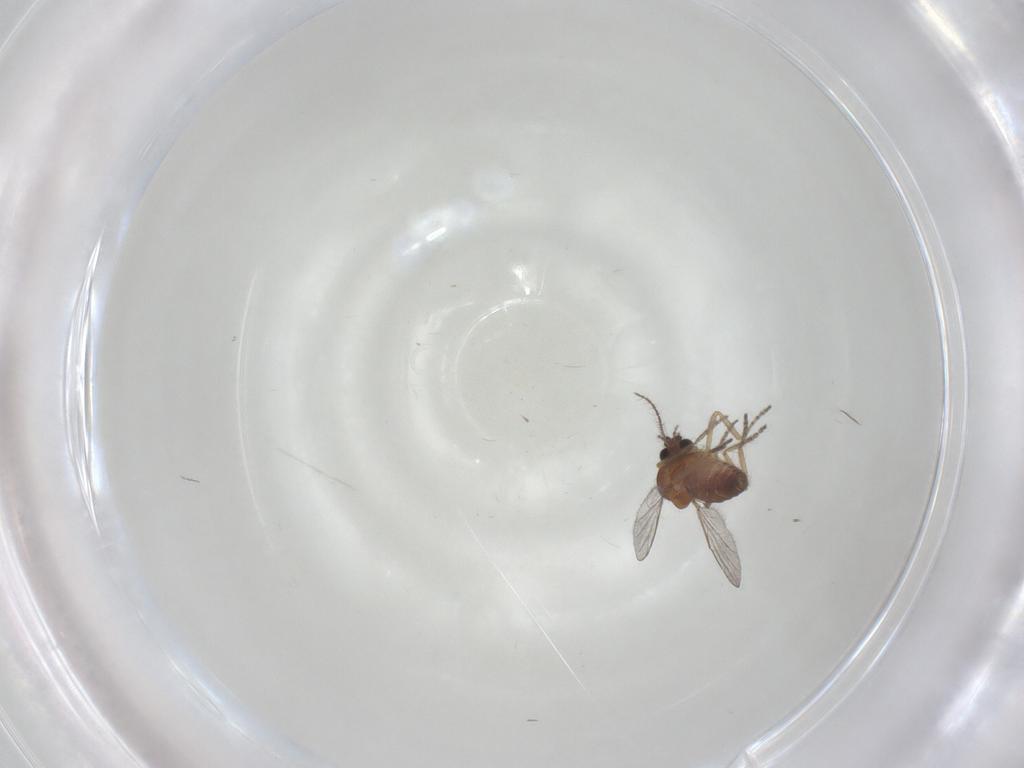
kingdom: Animalia
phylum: Arthropoda
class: Insecta
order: Diptera
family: Ceratopogonidae
